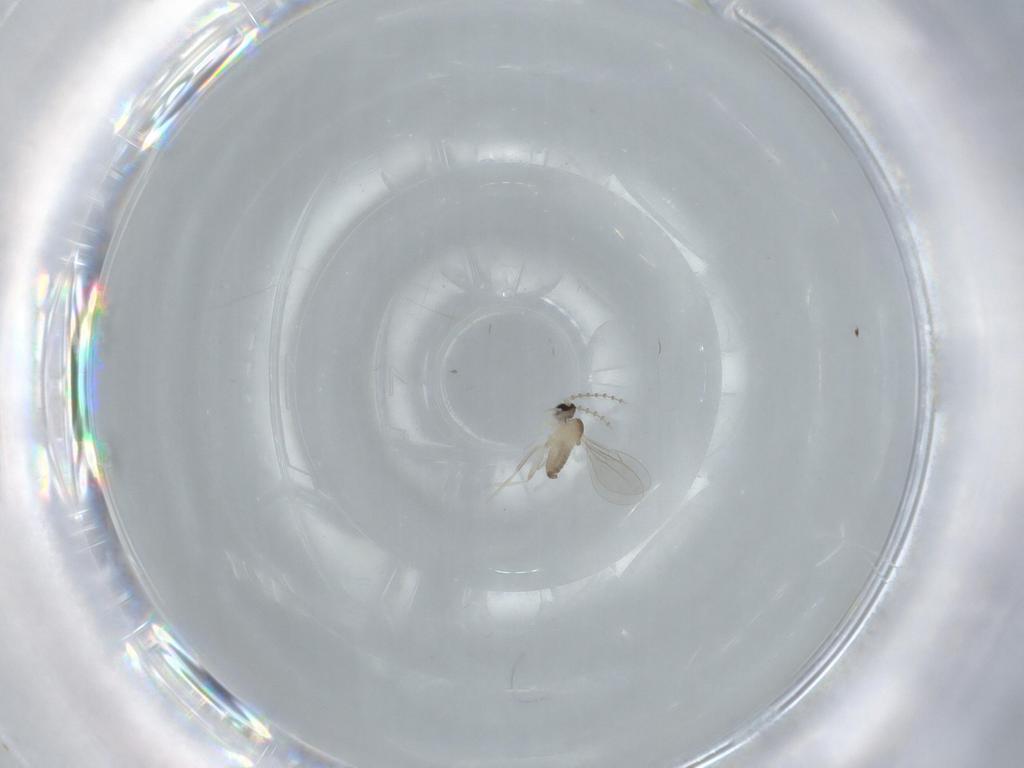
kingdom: Animalia
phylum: Arthropoda
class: Insecta
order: Diptera
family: Cecidomyiidae
